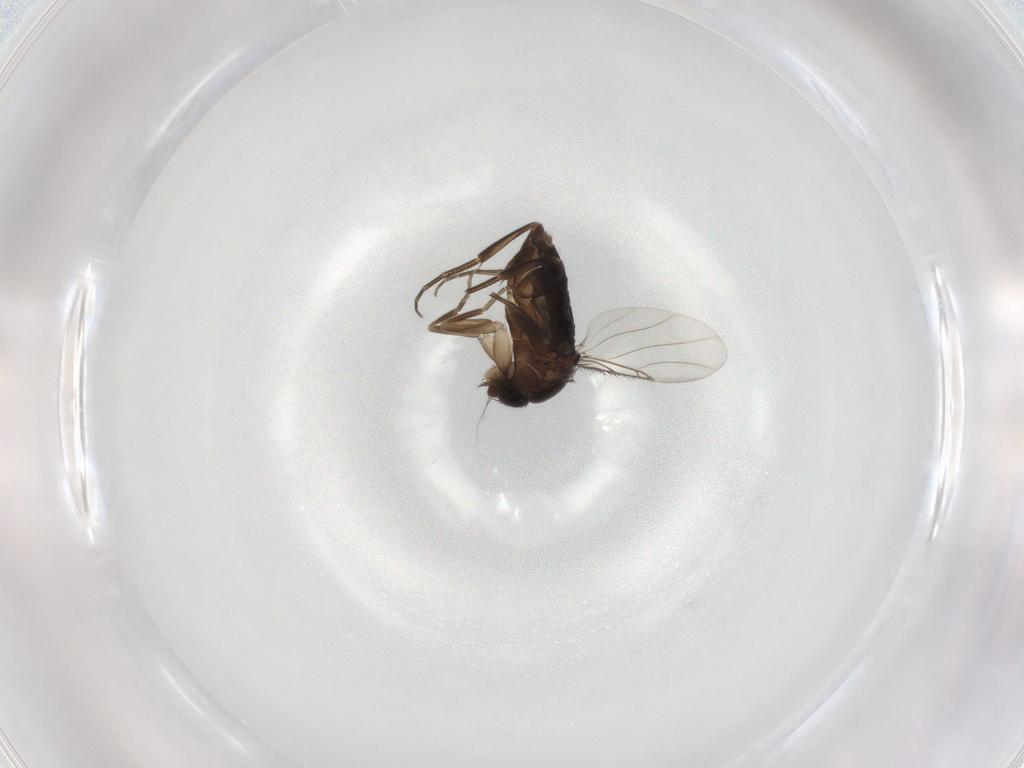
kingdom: Animalia
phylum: Arthropoda
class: Insecta
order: Diptera
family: Phoridae
